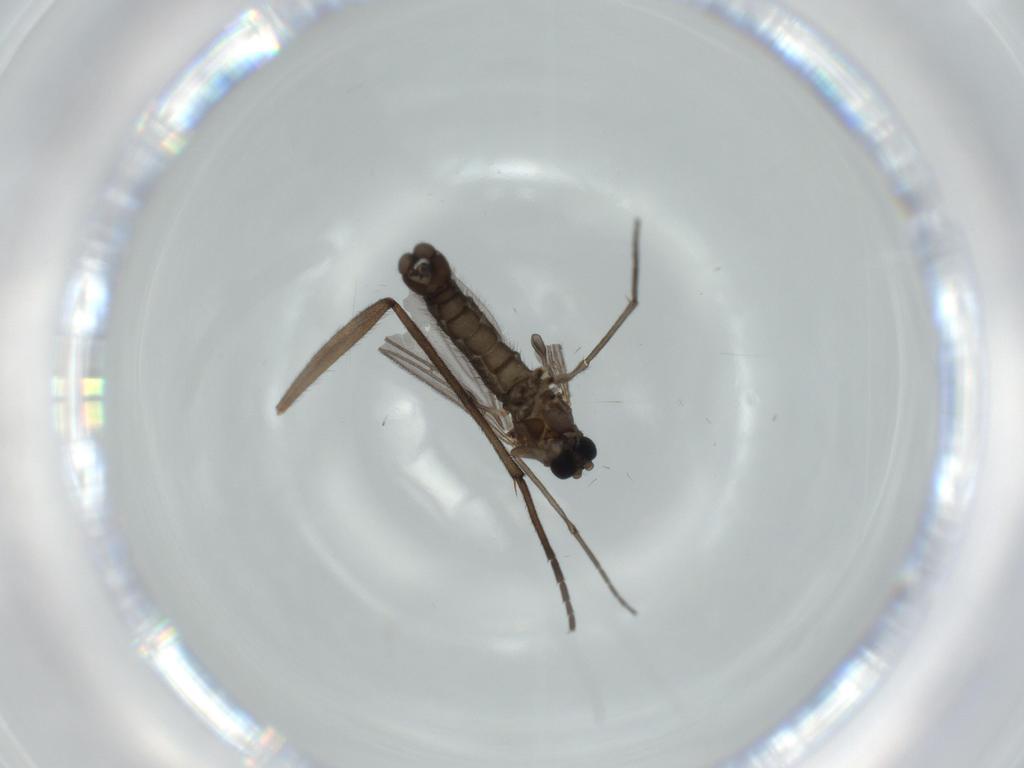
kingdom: Animalia
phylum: Arthropoda
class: Insecta
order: Diptera
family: Sciaridae
